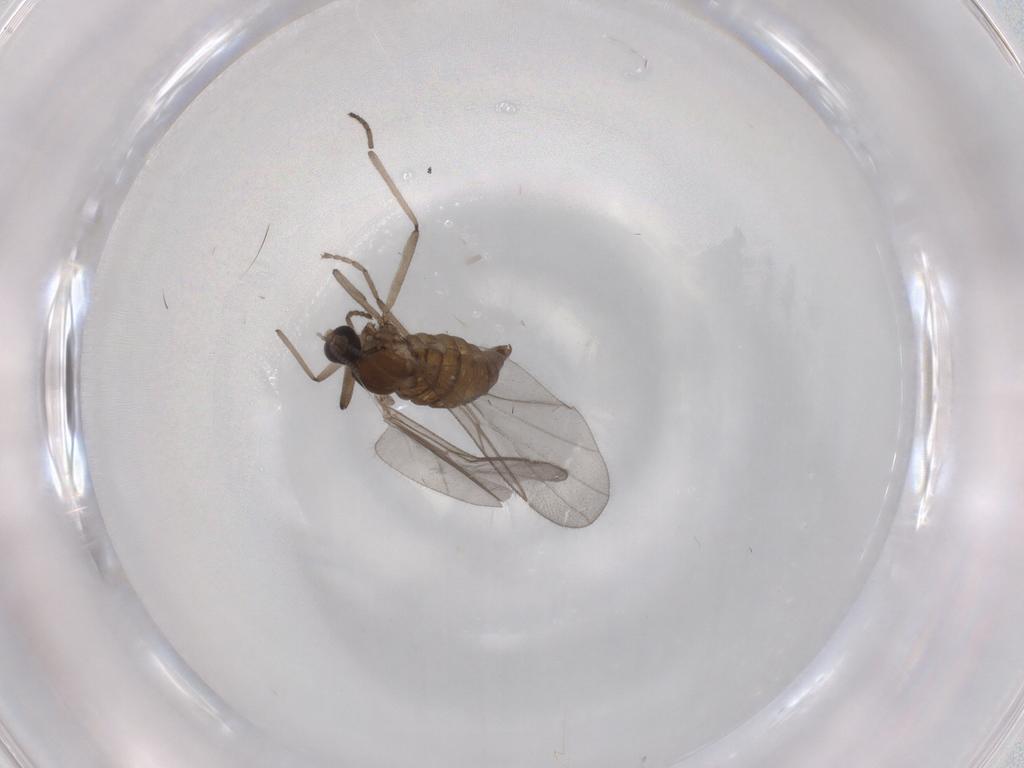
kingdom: Animalia
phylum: Arthropoda
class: Insecta
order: Diptera
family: Cecidomyiidae
